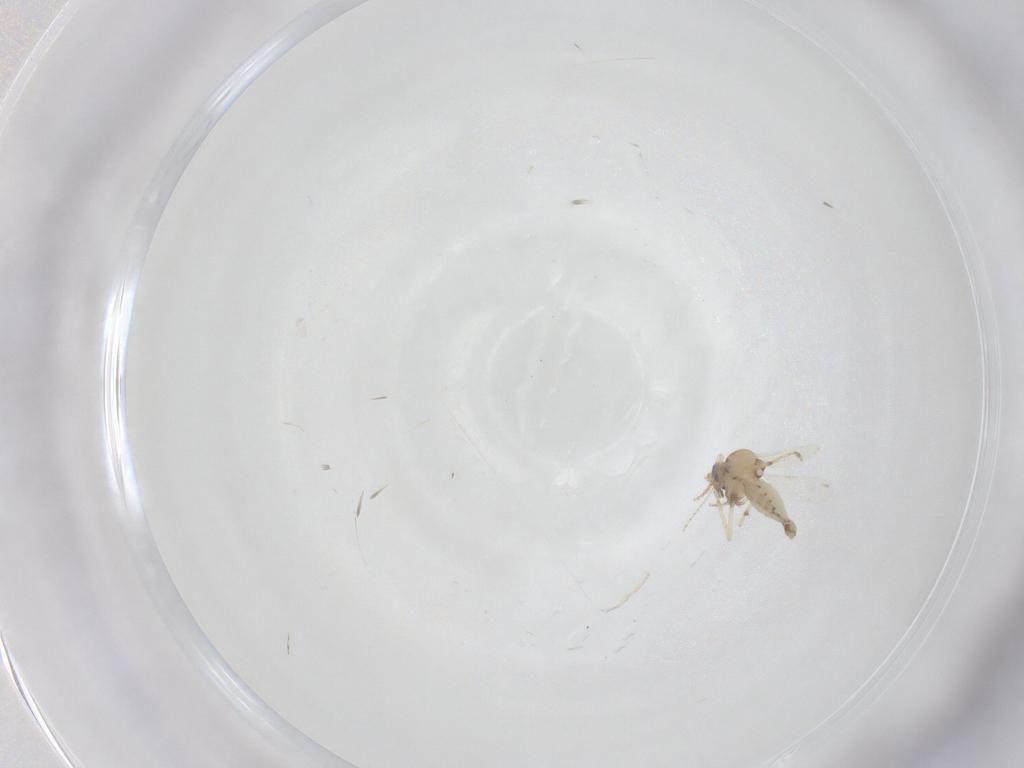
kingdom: Animalia
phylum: Arthropoda
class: Insecta
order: Diptera
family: Ceratopogonidae
